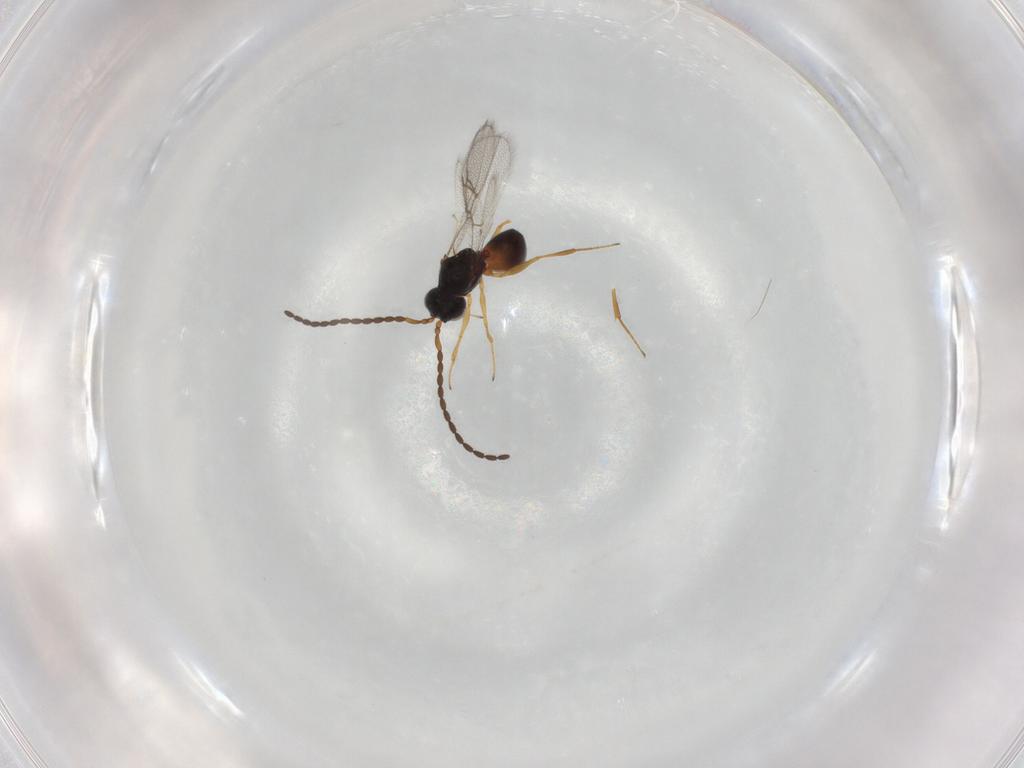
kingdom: Animalia
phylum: Arthropoda
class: Insecta
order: Hymenoptera
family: Figitidae
